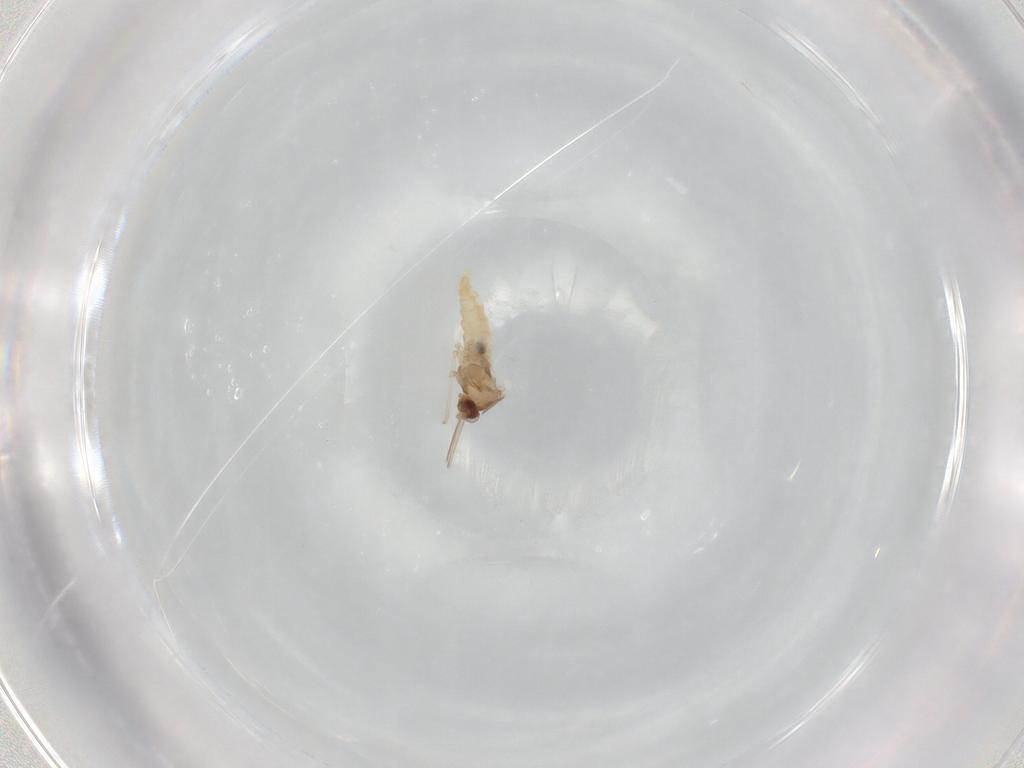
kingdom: Animalia
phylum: Arthropoda
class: Insecta
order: Diptera
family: Cecidomyiidae
